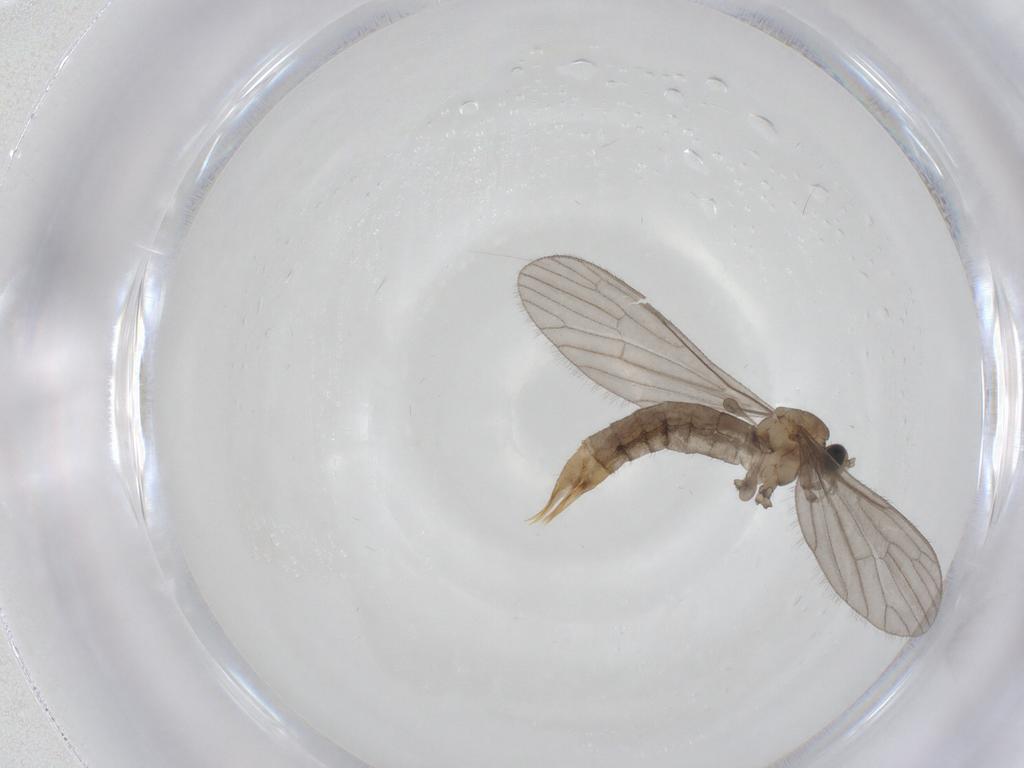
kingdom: Animalia
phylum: Arthropoda
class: Insecta
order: Diptera
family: Limoniidae
